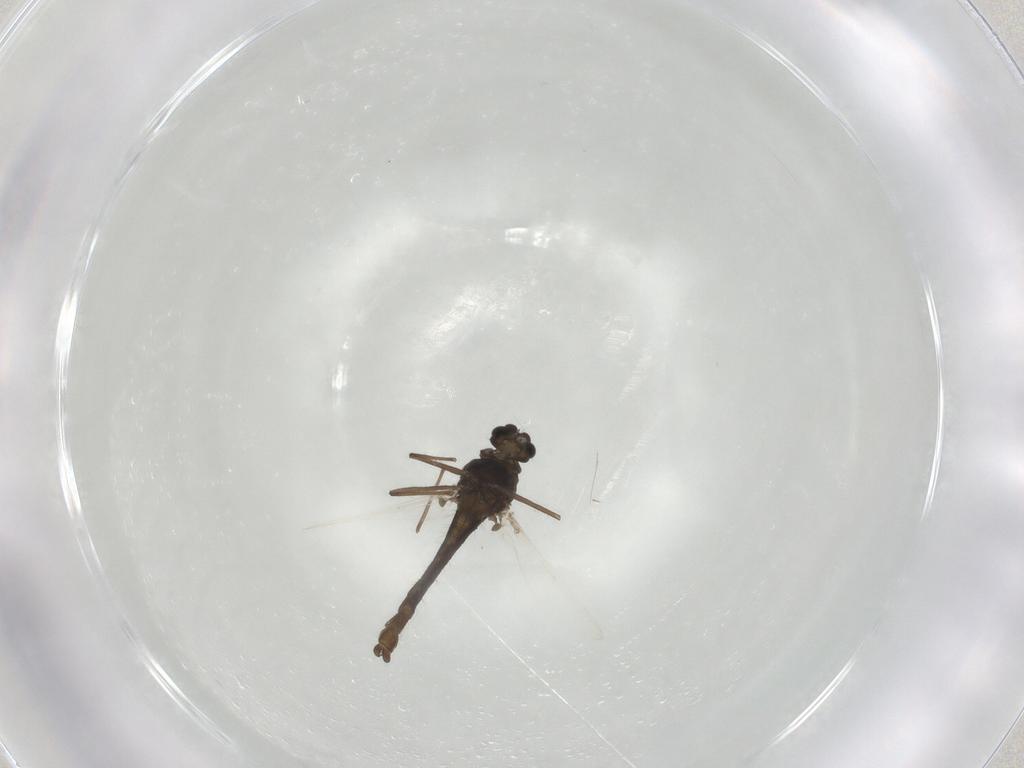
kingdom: Animalia
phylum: Arthropoda
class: Insecta
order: Diptera
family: Chironomidae
